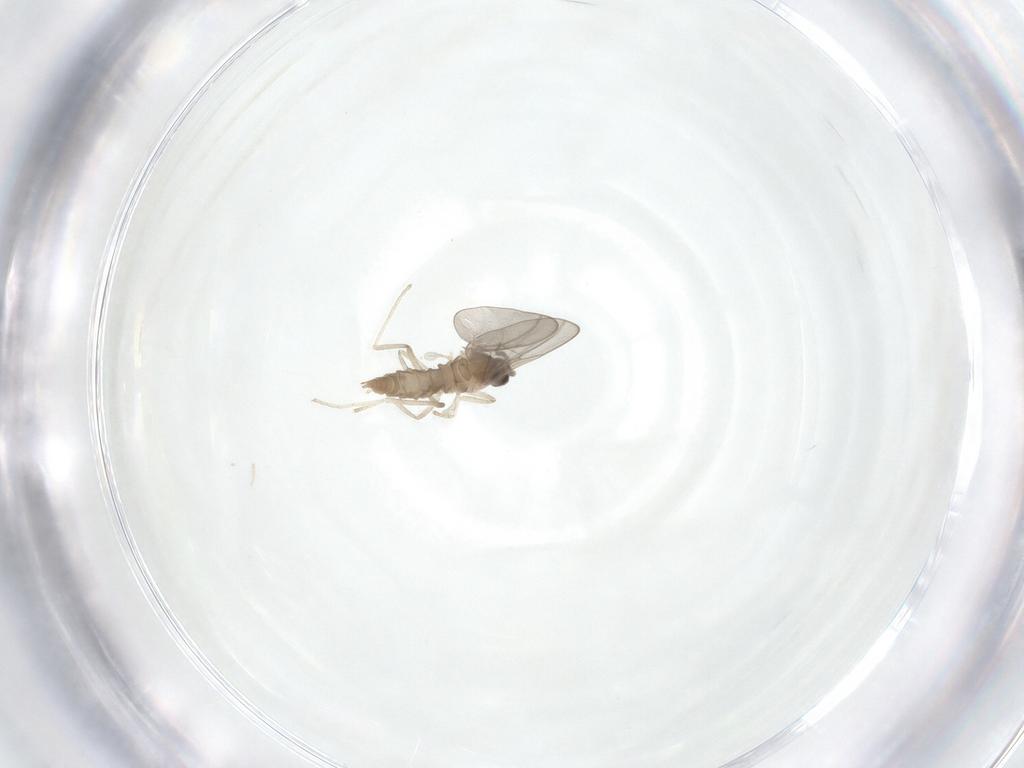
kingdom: Animalia
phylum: Arthropoda
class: Insecta
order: Diptera
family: Cecidomyiidae
